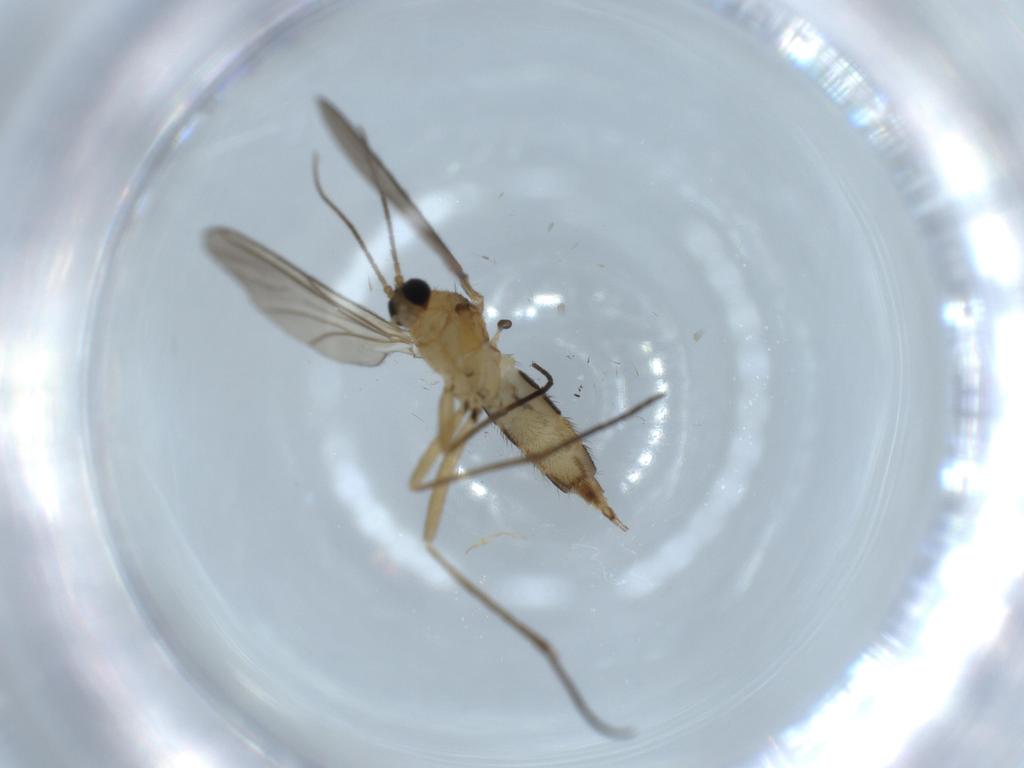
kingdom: Animalia
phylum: Arthropoda
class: Insecta
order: Diptera
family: Sciaridae
